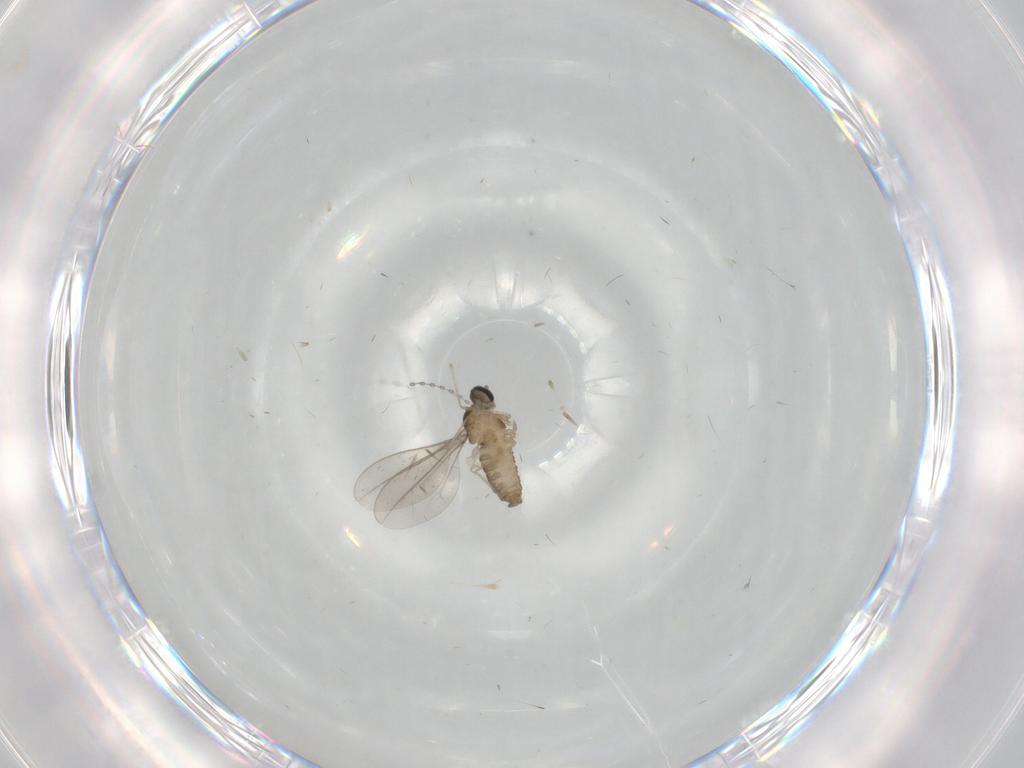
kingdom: Animalia
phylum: Arthropoda
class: Insecta
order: Diptera
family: Cecidomyiidae
